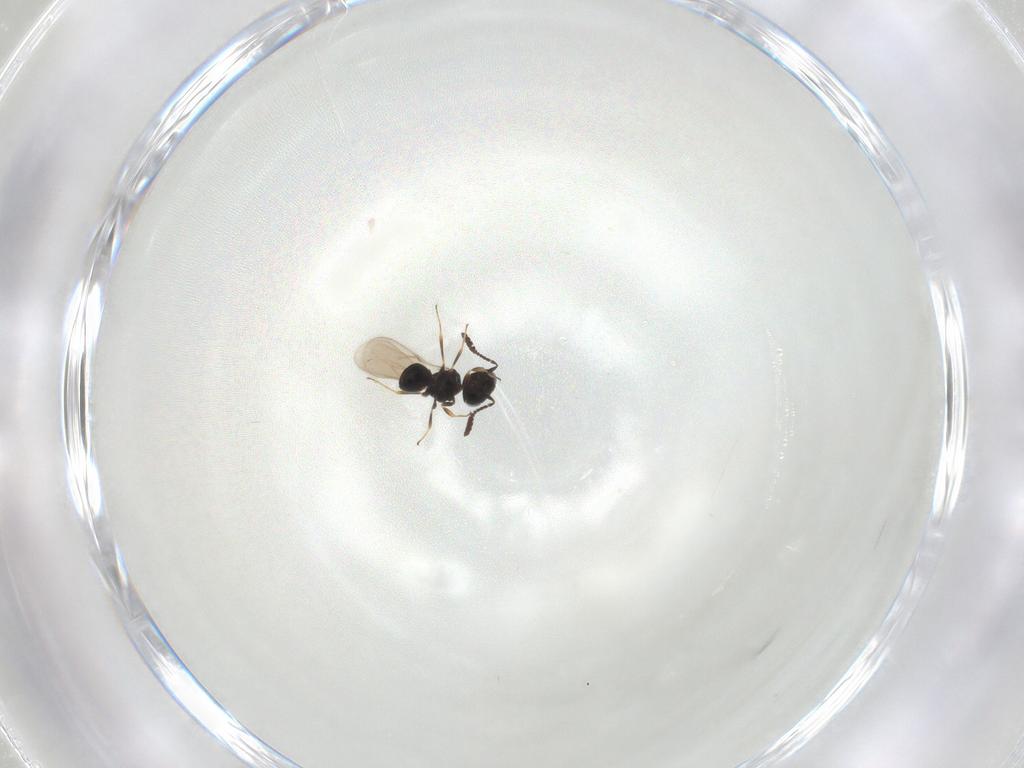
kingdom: Animalia
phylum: Arthropoda
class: Insecta
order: Hymenoptera
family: Scelionidae
